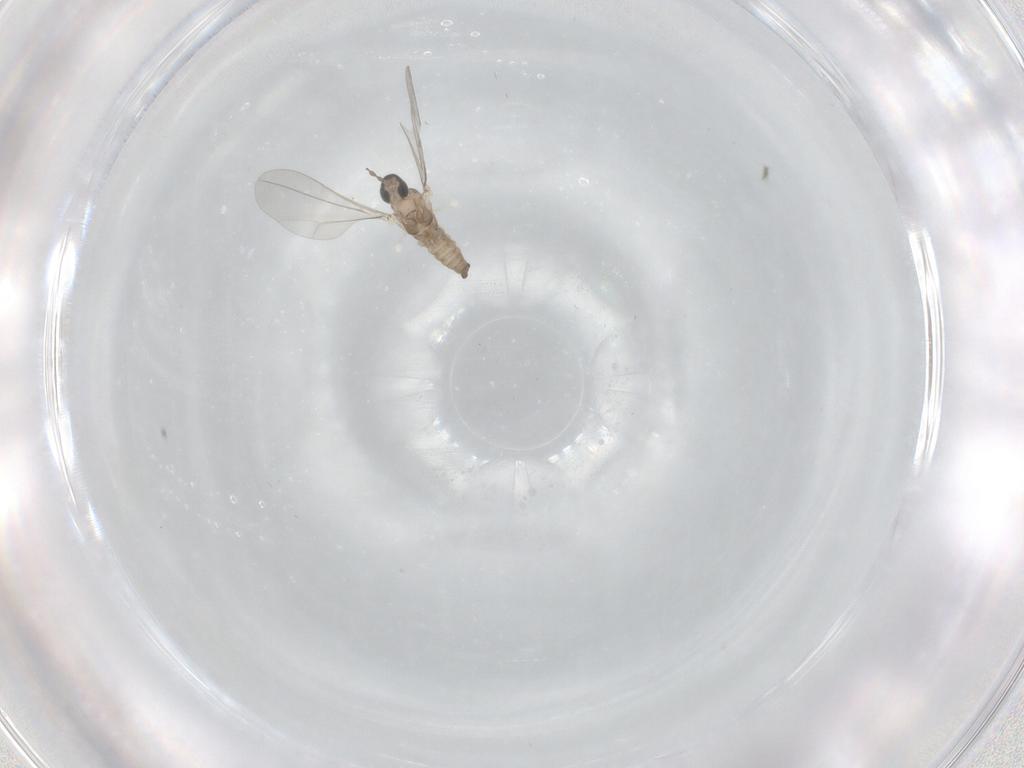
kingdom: Animalia
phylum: Arthropoda
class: Insecta
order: Diptera
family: Cecidomyiidae
